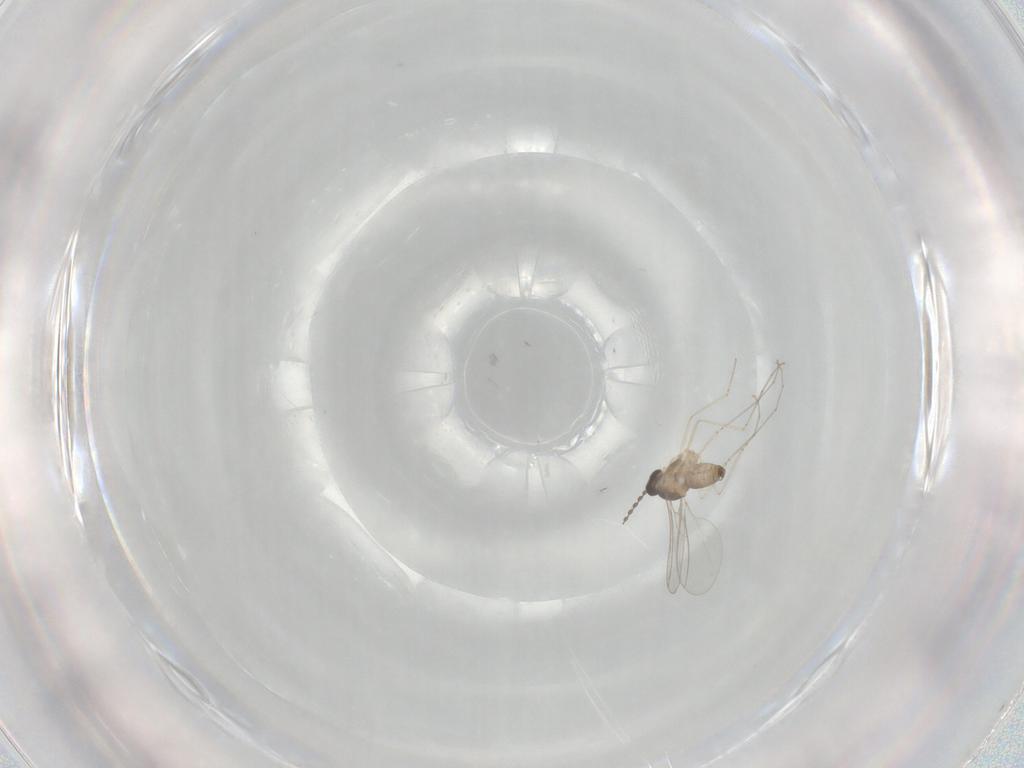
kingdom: Animalia
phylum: Arthropoda
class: Insecta
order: Diptera
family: Cecidomyiidae
